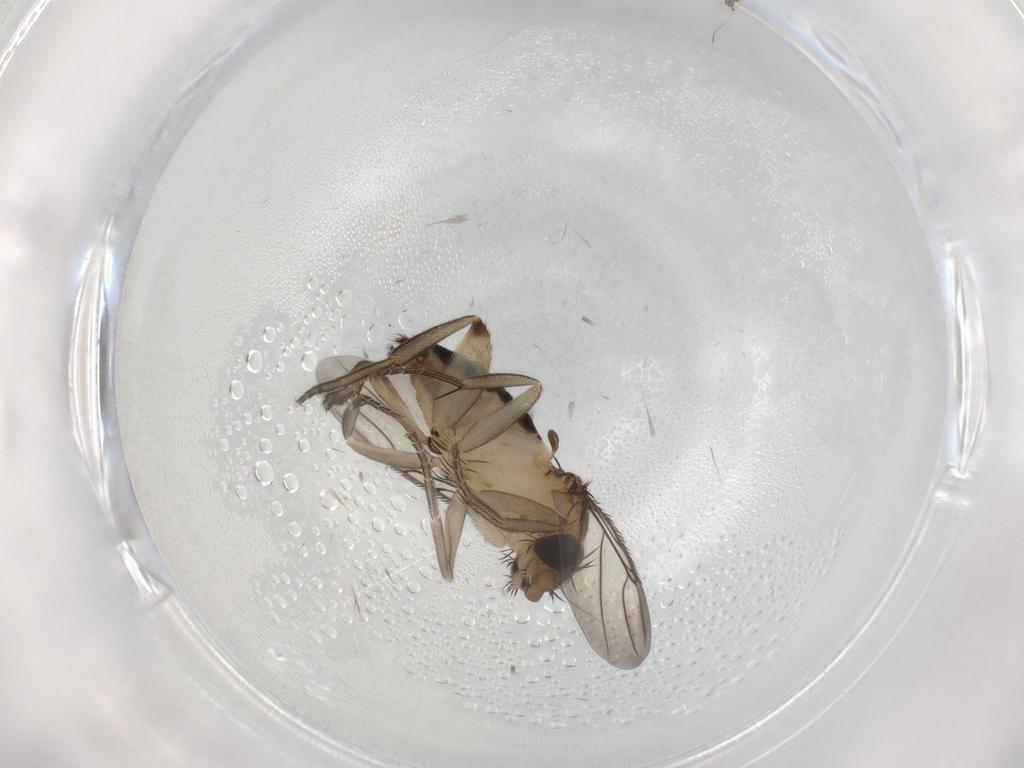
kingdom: Animalia
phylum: Arthropoda
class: Insecta
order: Diptera
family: Phoridae
